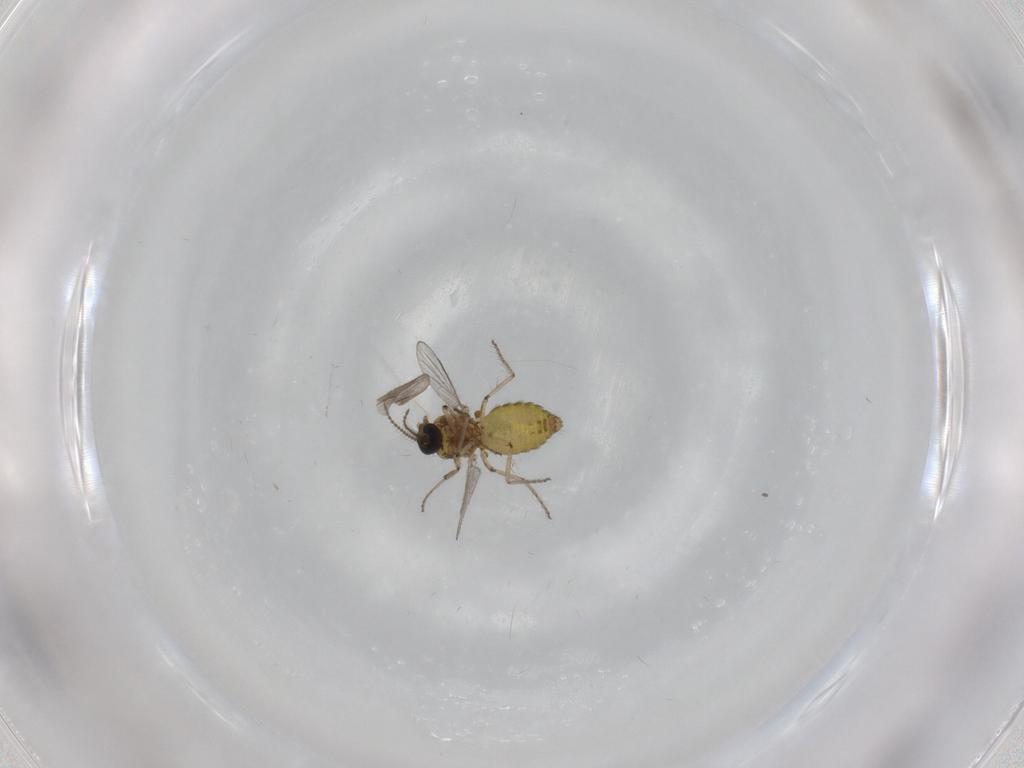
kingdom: Animalia
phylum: Arthropoda
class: Insecta
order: Diptera
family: Ceratopogonidae
